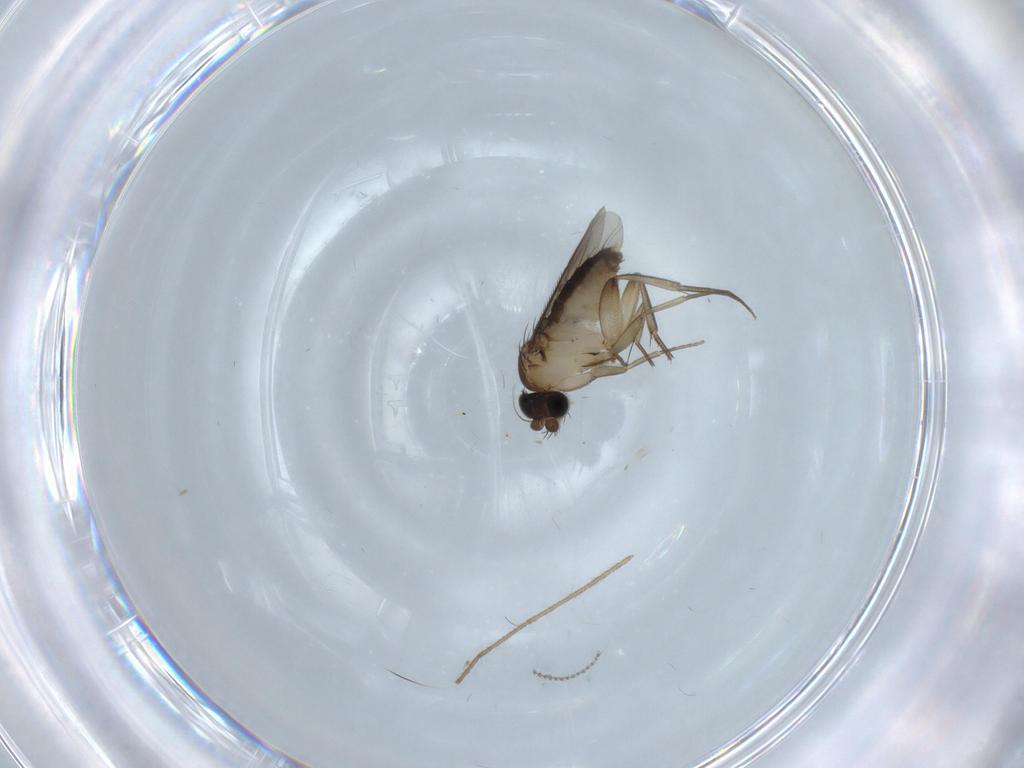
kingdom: Animalia
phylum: Arthropoda
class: Insecta
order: Diptera
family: Phoridae
